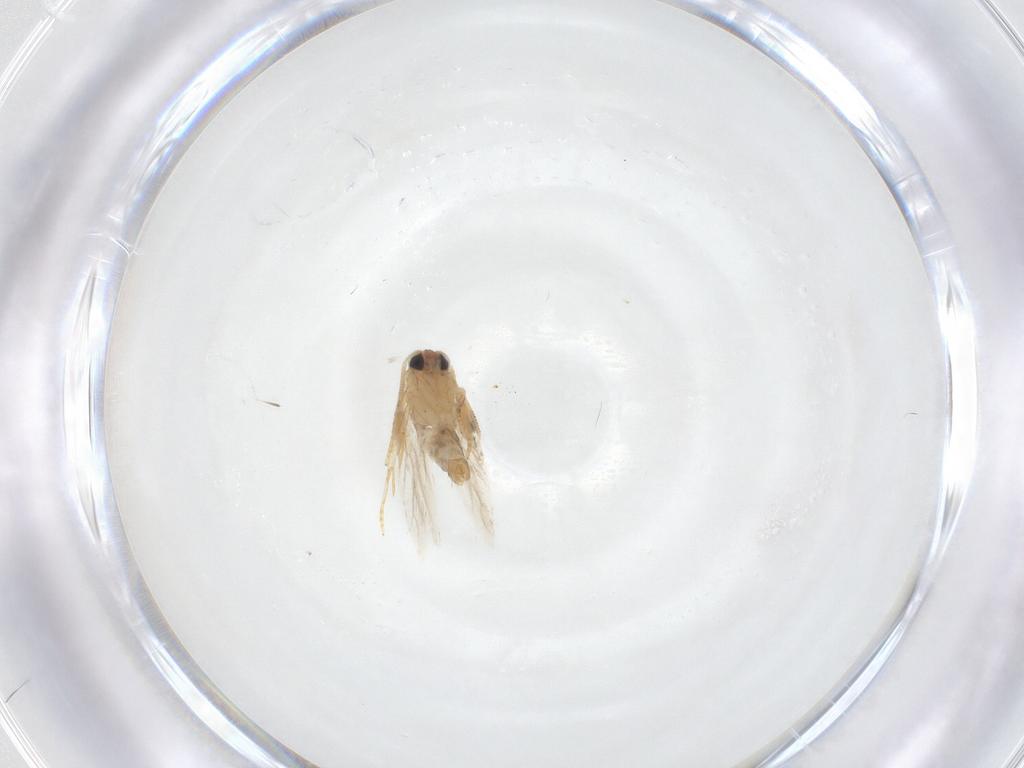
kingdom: Animalia
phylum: Arthropoda
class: Insecta
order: Lepidoptera
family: Nepticulidae
